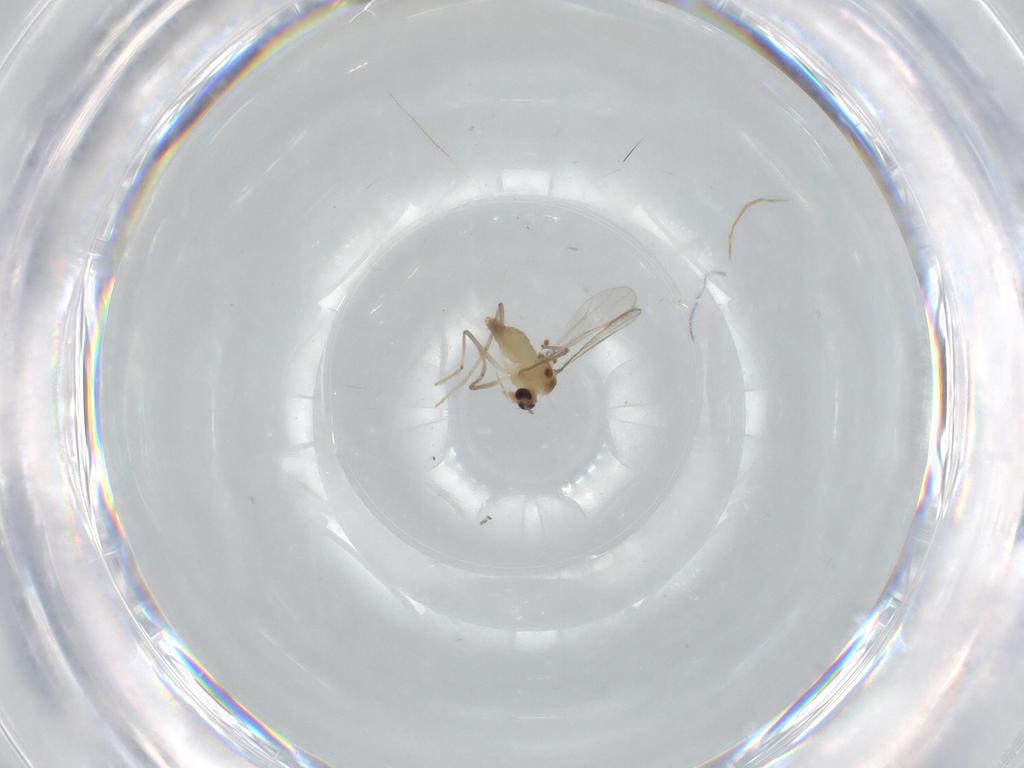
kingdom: Animalia
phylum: Arthropoda
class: Insecta
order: Diptera
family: Chironomidae
